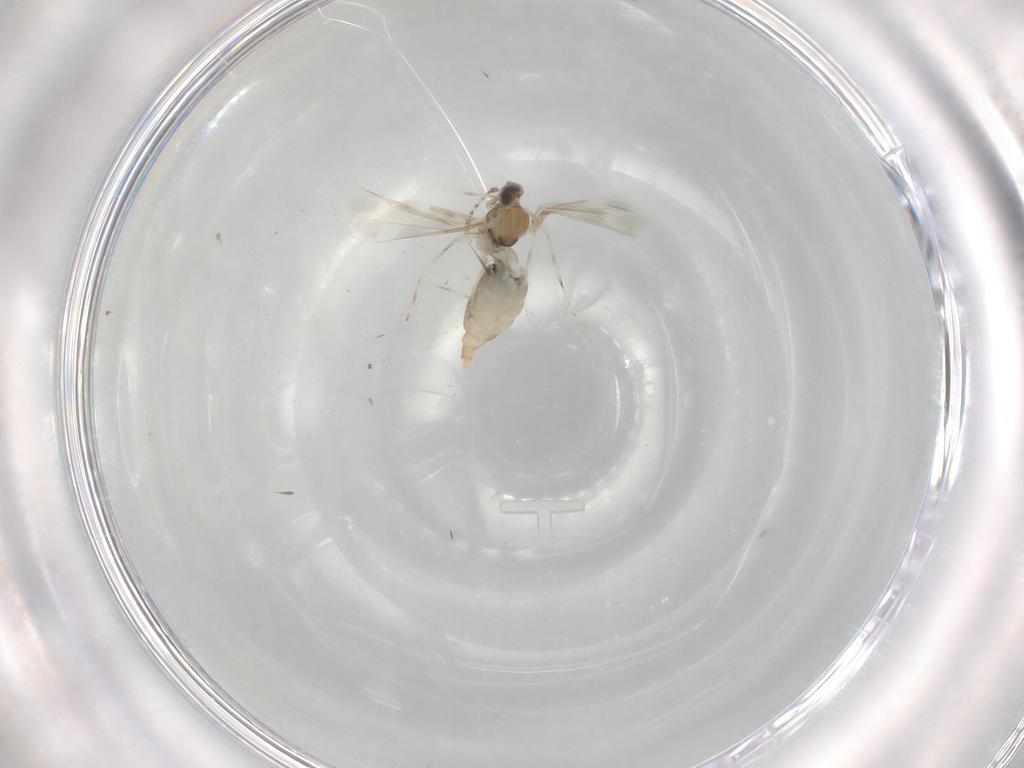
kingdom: Animalia
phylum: Arthropoda
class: Insecta
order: Diptera
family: Cecidomyiidae
